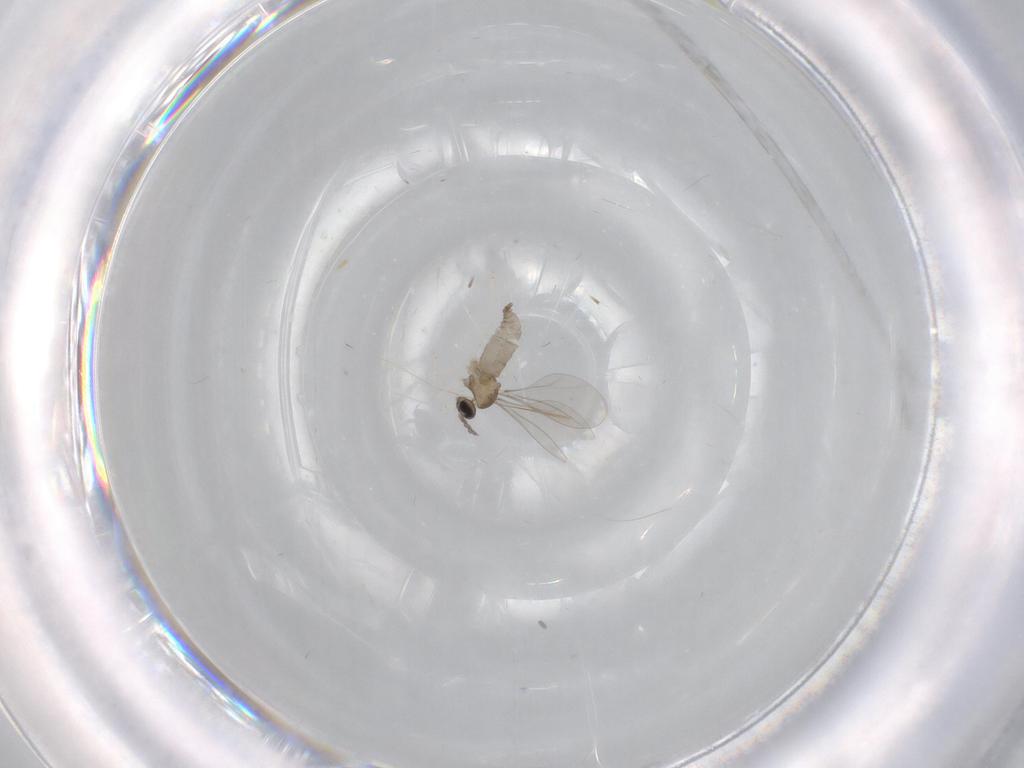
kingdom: Animalia
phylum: Arthropoda
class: Insecta
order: Diptera
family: Cecidomyiidae
